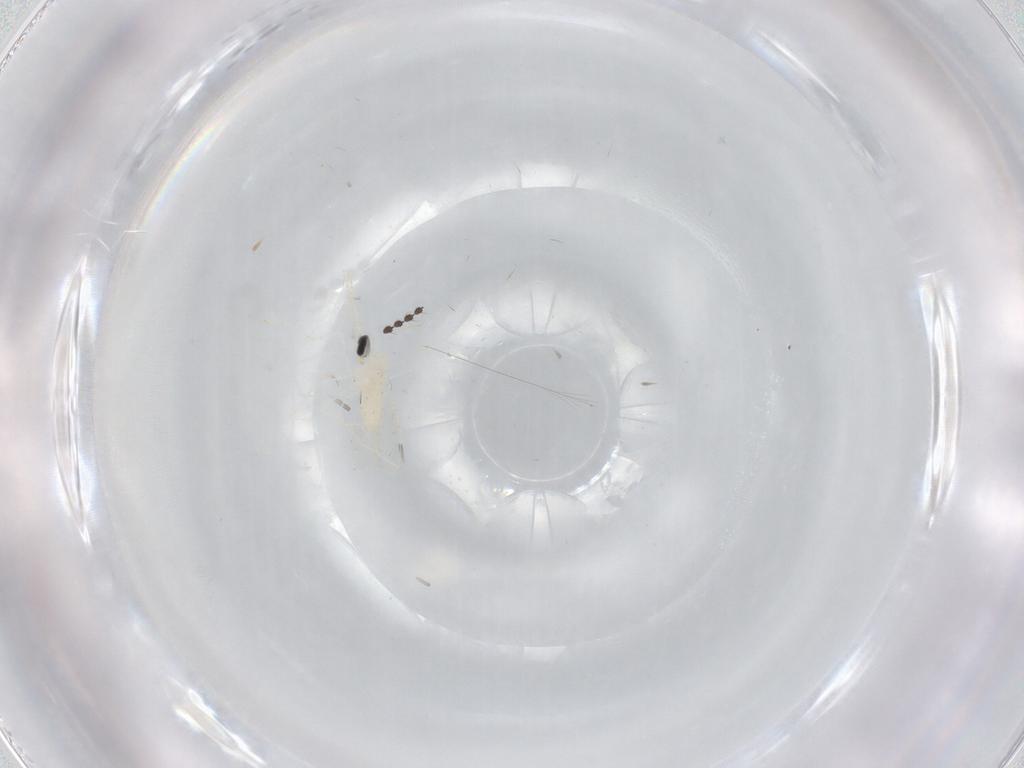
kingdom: Animalia
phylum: Arthropoda
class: Insecta
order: Diptera
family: Cecidomyiidae
